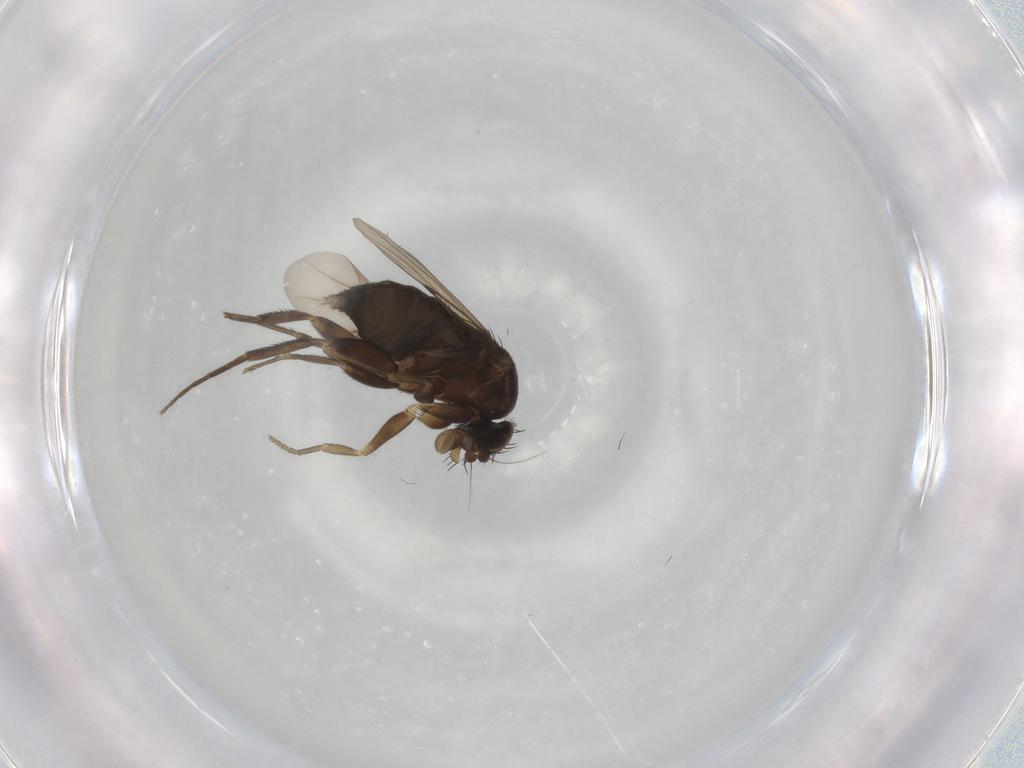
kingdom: Animalia
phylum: Arthropoda
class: Insecta
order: Diptera
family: Phoridae
